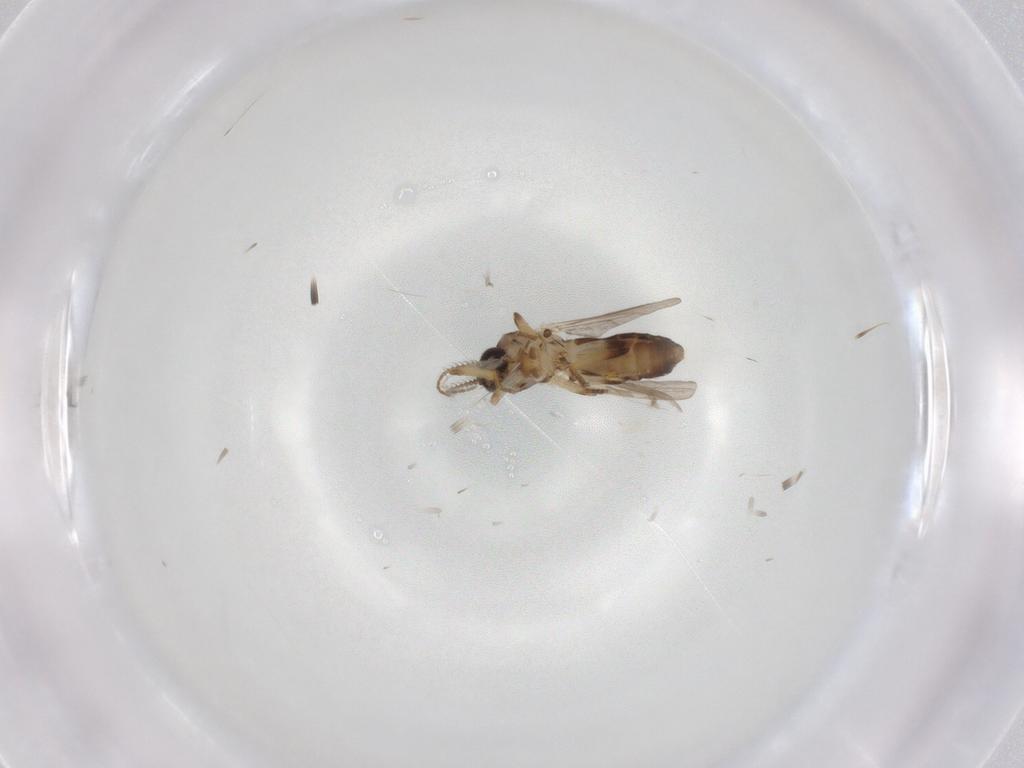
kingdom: Animalia
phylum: Arthropoda
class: Insecta
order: Diptera
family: Ceratopogonidae
